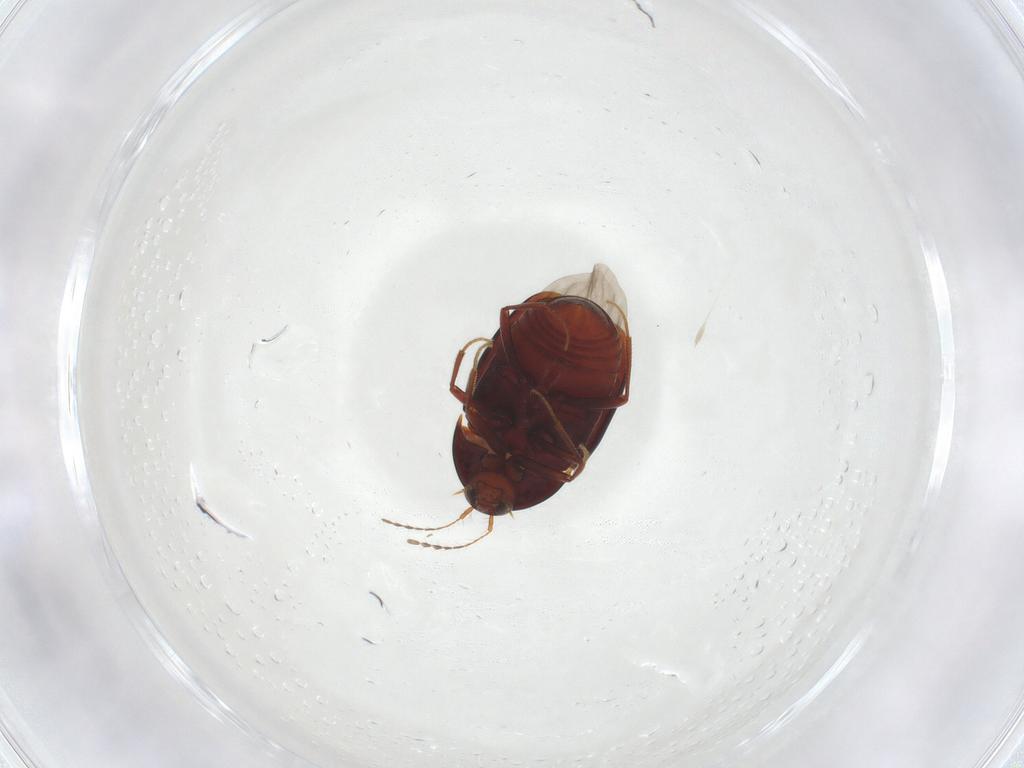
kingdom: Animalia
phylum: Arthropoda
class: Insecta
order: Coleoptera
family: Staphylinidae
